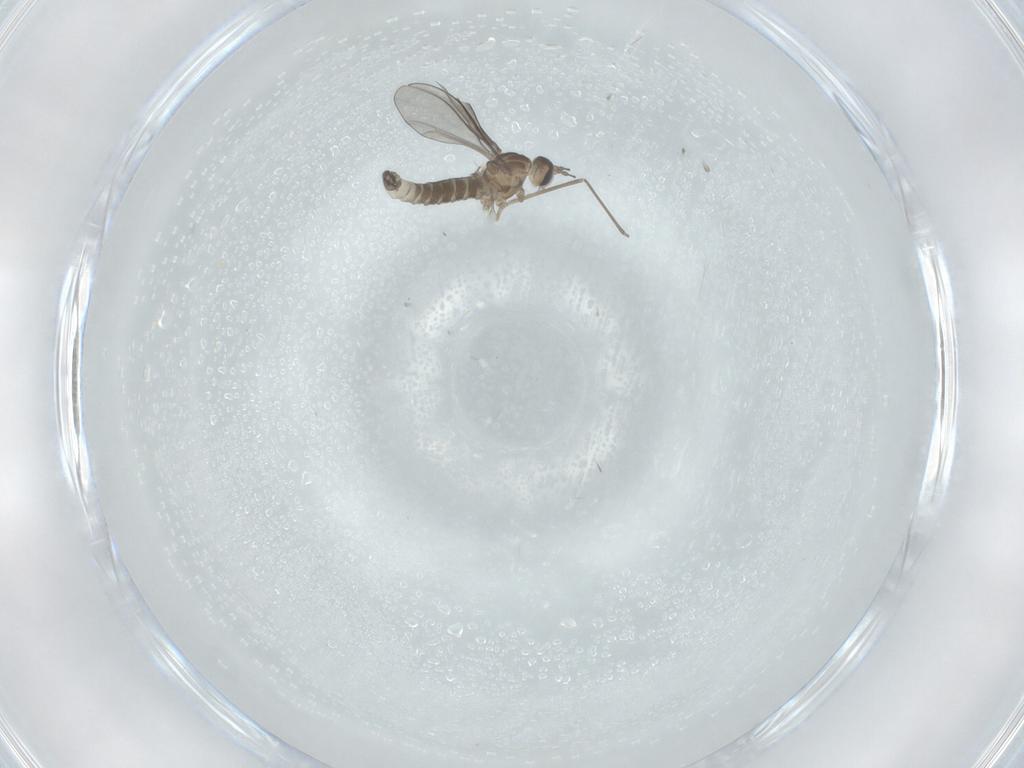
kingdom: Animalia
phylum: Arthropoda
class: Insecta
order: Diptera
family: Cecidomyiidae
